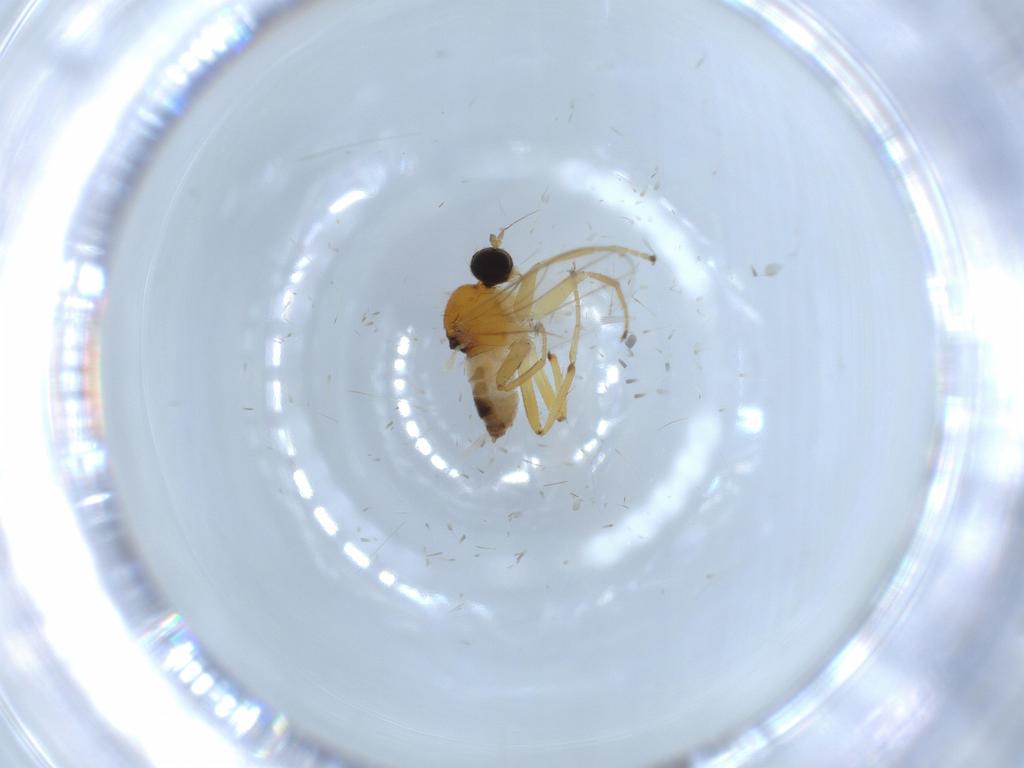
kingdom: Animalia
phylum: Arthropoda
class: Insecta
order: Diptera
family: Hybotidae
